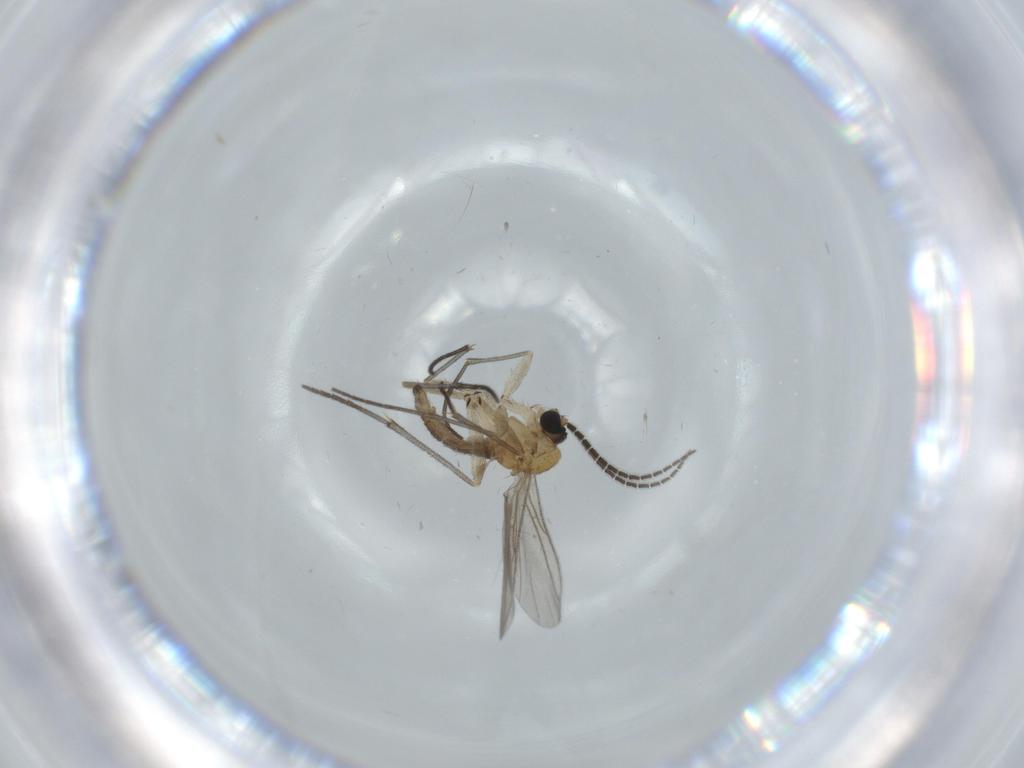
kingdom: Animalia
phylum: Arthropoda
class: Insecta
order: Diptera
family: Sciaridae
